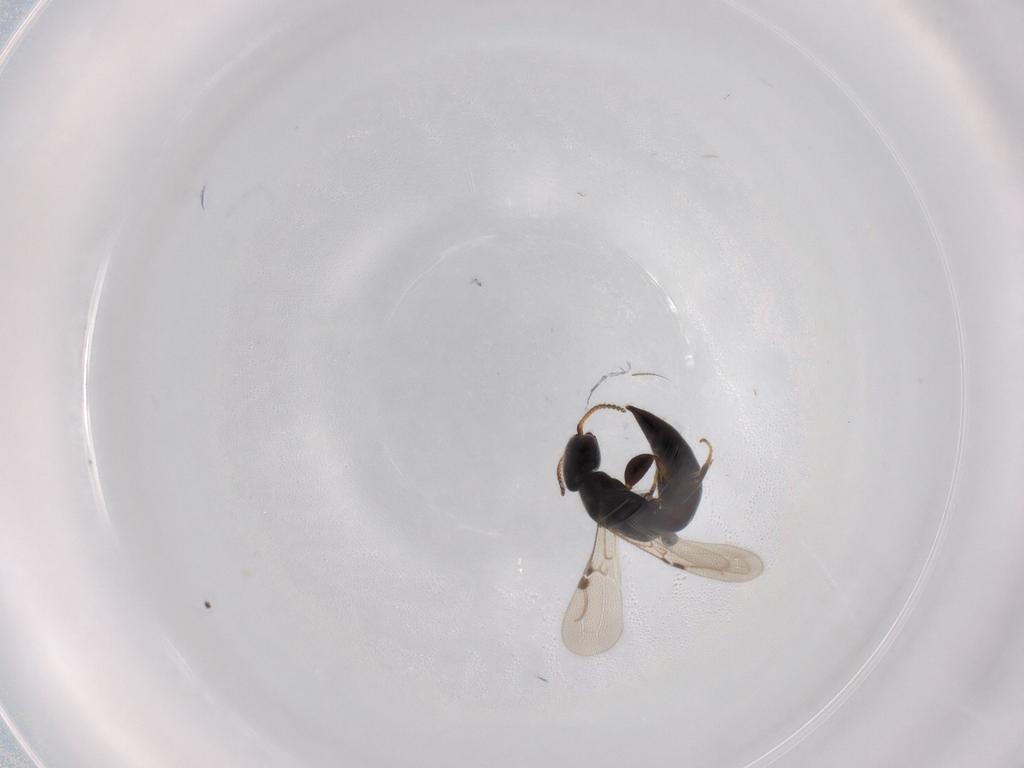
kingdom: Animalia
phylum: Arthropoda
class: Insecta
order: Hymenoptera
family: Bethylidae
